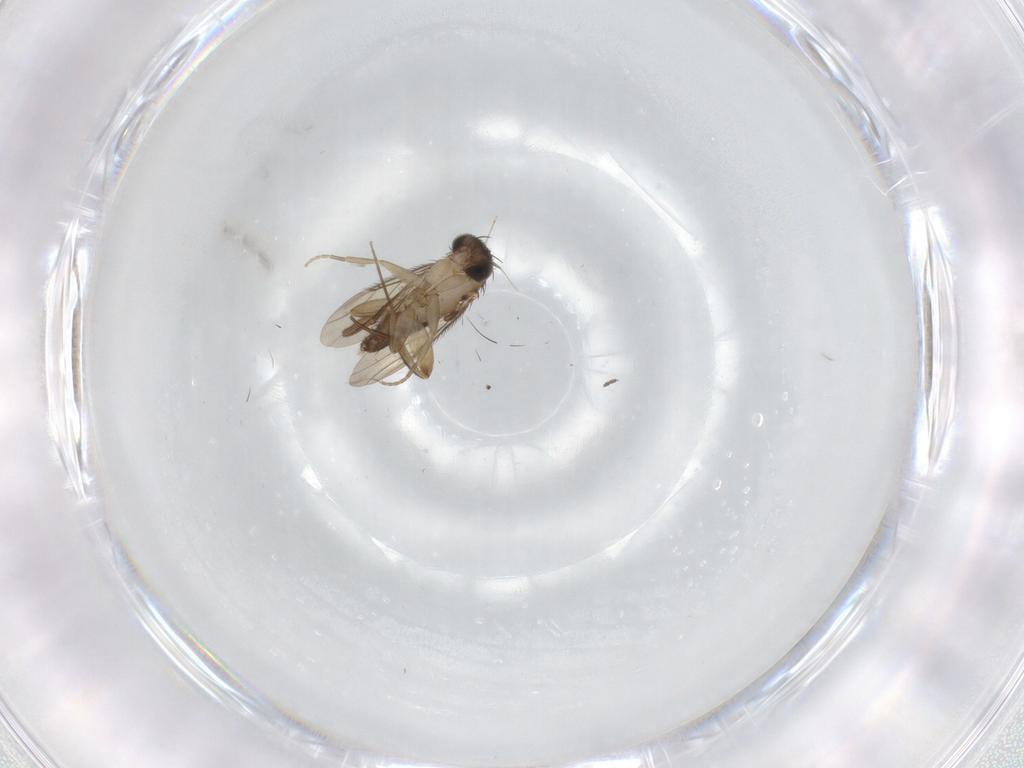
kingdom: Animalia
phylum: Arthropoda
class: Insecta
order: Diptera
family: Phoridae
